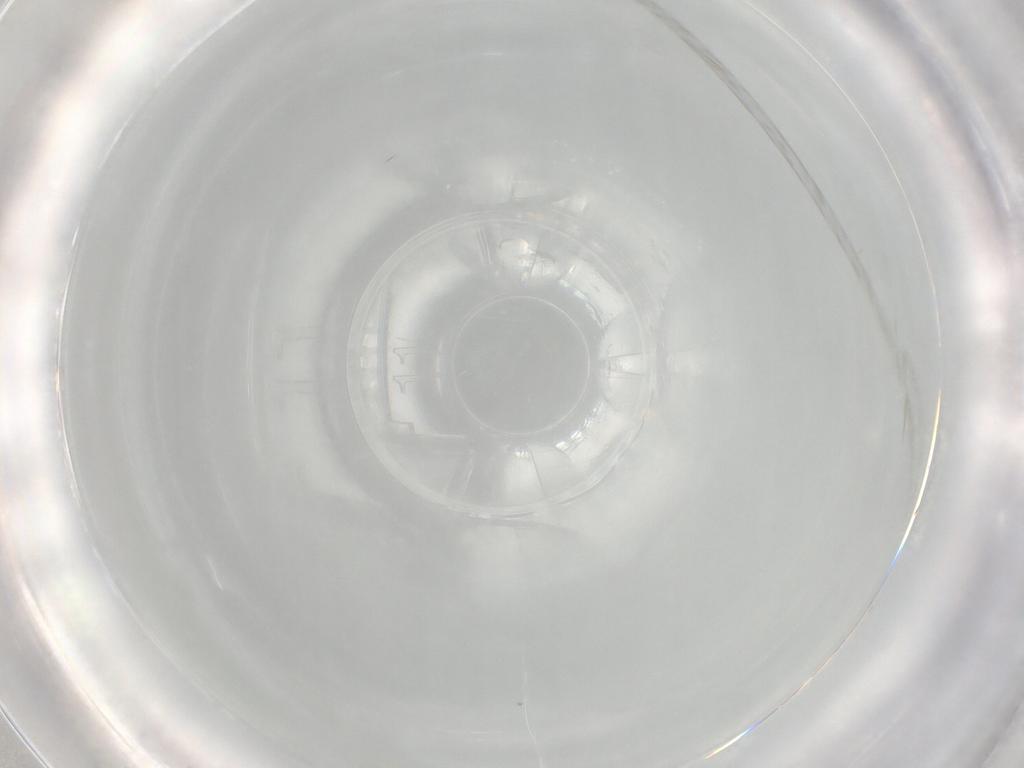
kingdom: Animalia
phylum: Arthropoda
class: Insecta
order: Diptera
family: Cecidomyiidae
